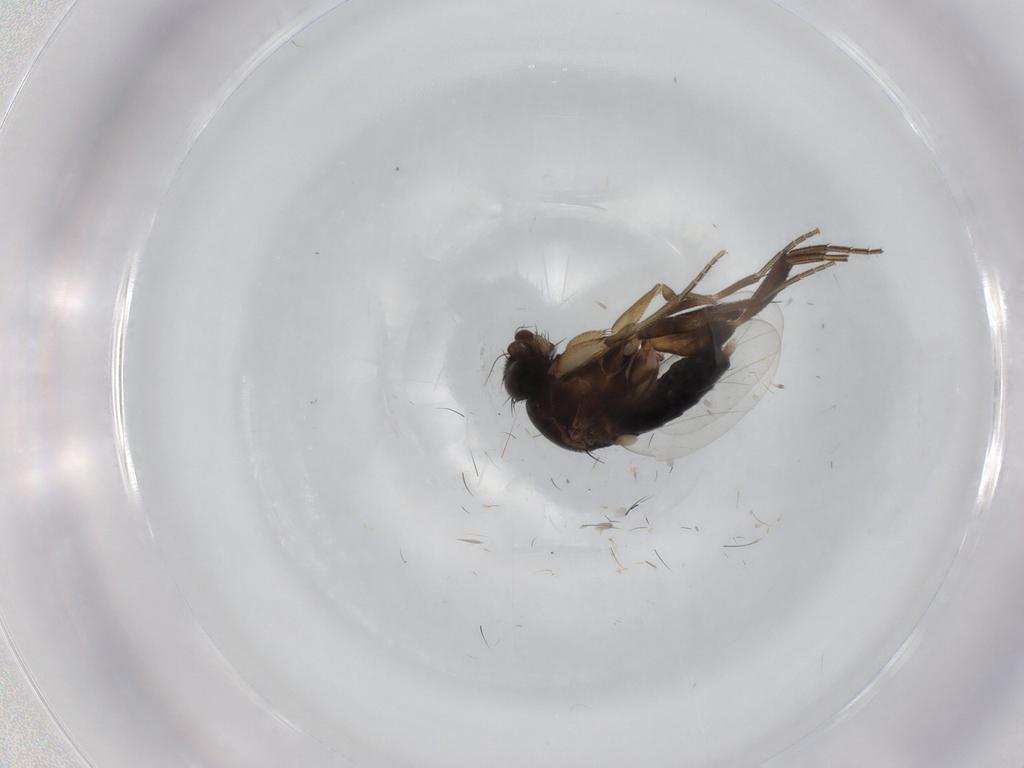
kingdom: Animalia
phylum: Arthropoda
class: Insecta
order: Diptera
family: Phoridae
